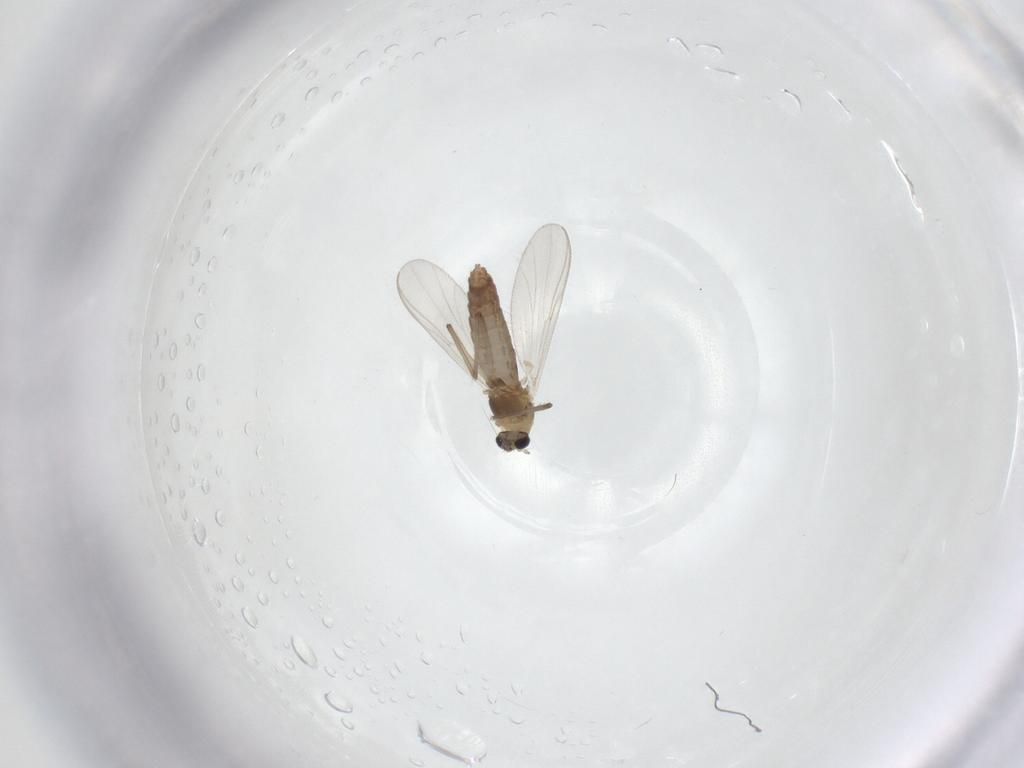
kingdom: Animalia
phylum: Arthropoda
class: Insecta
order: Diptera
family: Chironomidae
